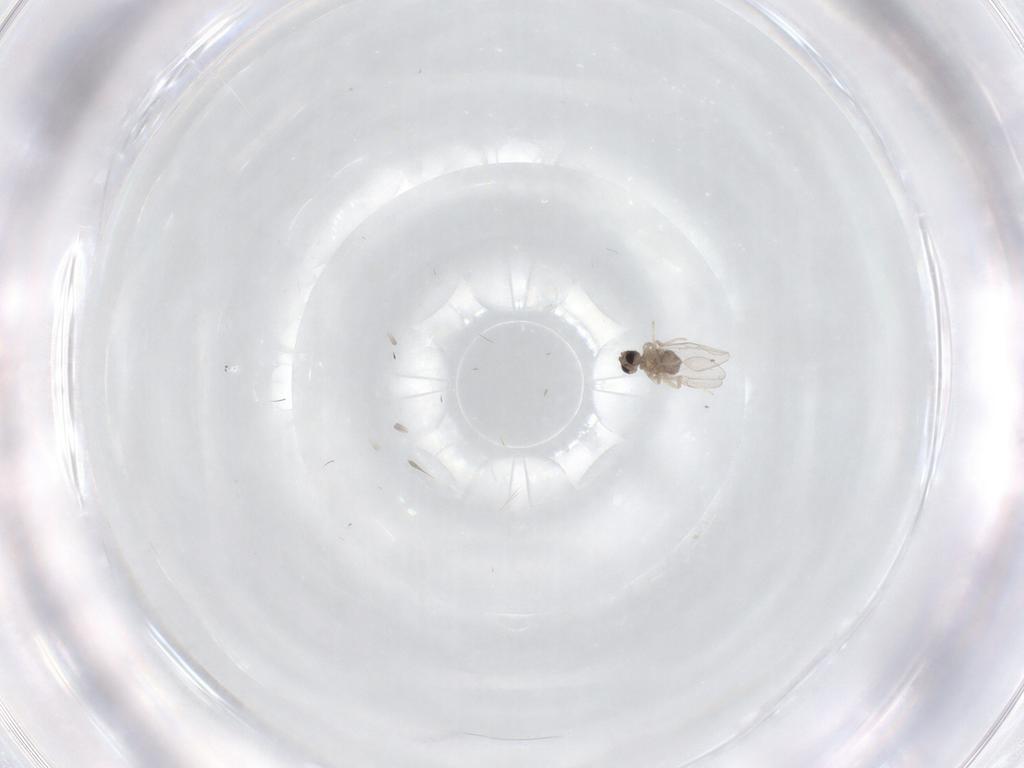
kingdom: Animalia
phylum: Arthropoda
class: Insecta
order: Diptera
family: Cecidomyiidae
